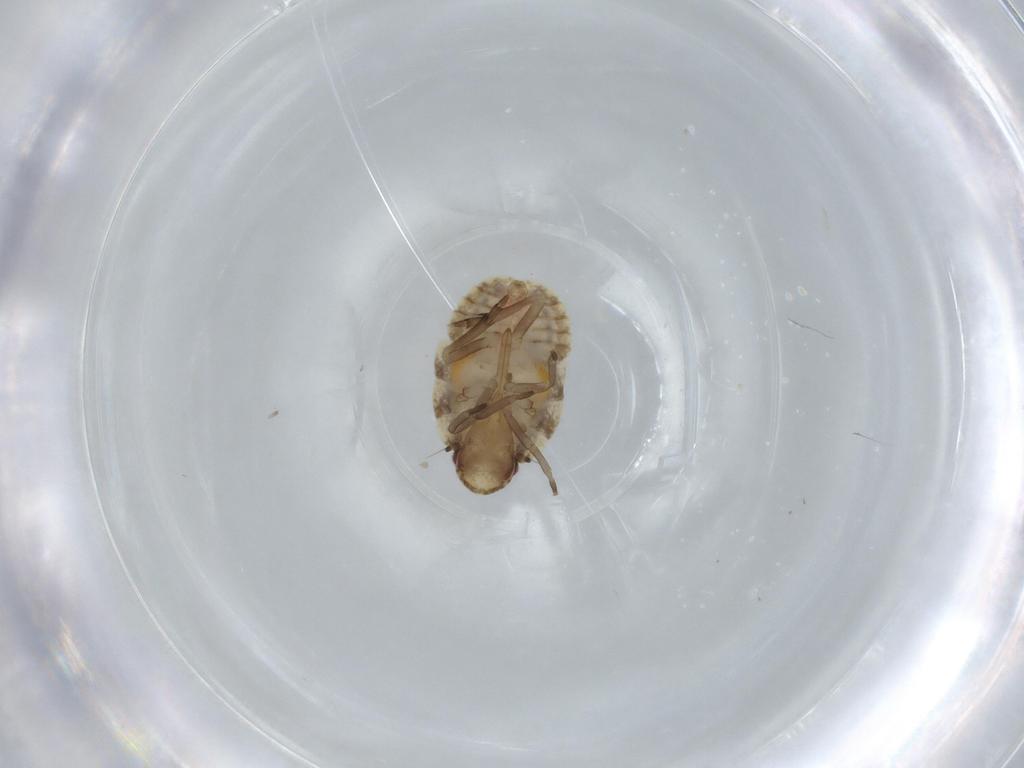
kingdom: Animalia
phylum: Arthropoda
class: Insecta
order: Hemiptera
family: Flatidae
